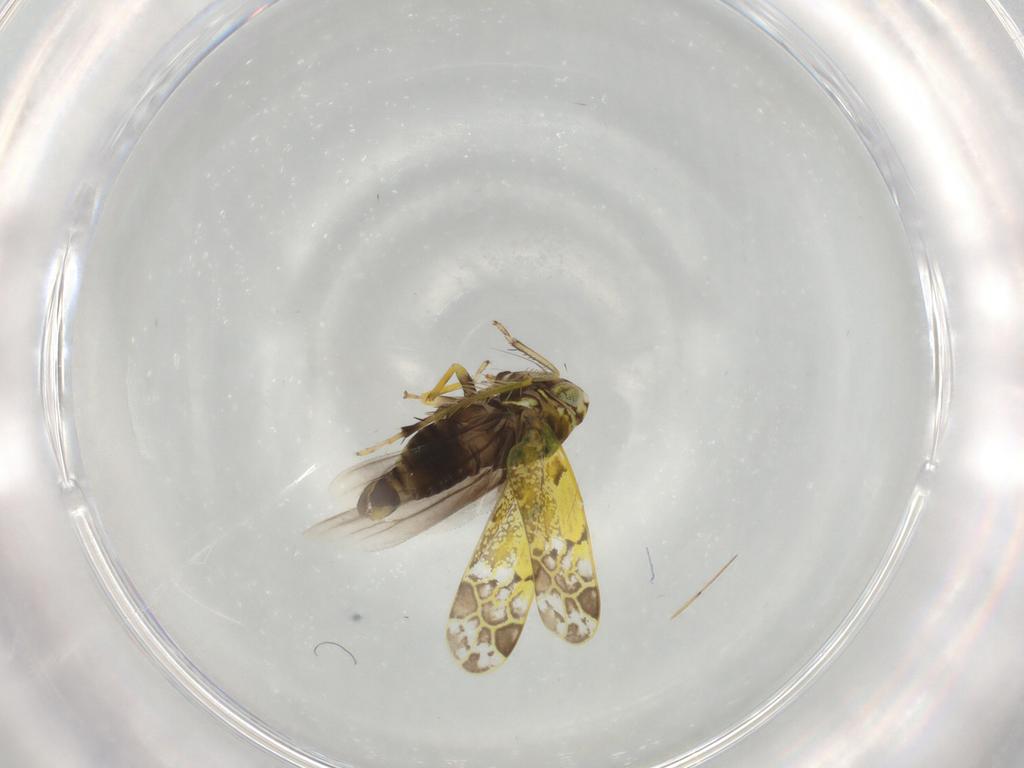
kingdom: Animalia
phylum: Arthropoda
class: Insecta
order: Hemiptera
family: Cicadellidae
